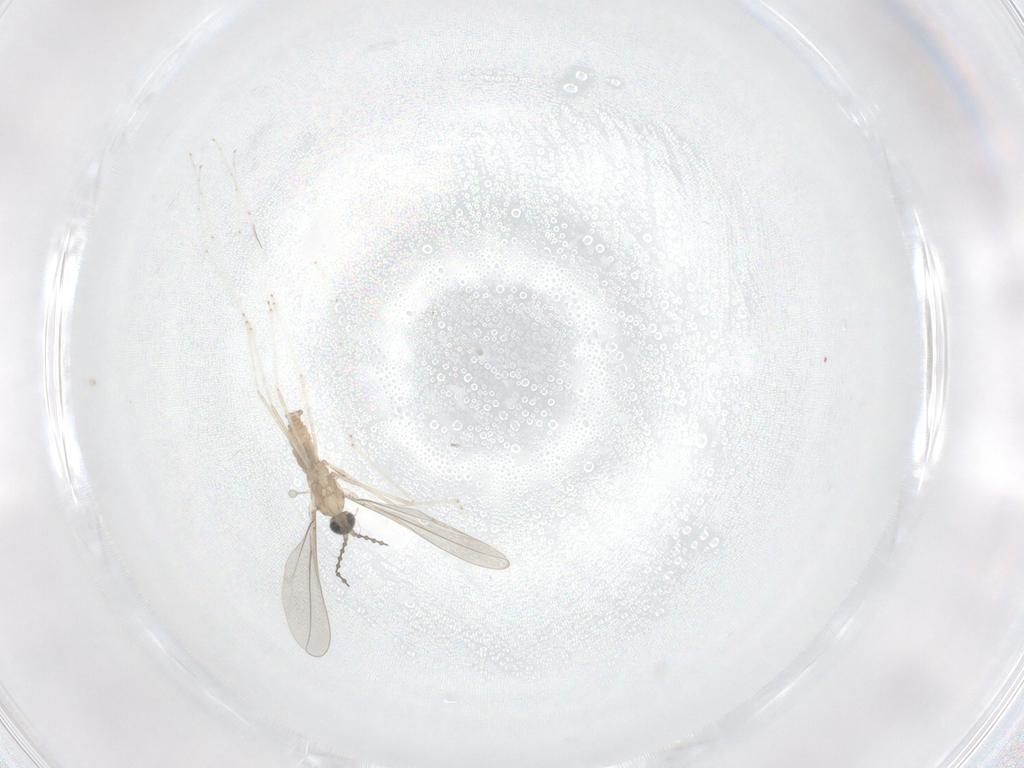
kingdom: Animalia
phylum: Arthropoda
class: Insecta
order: Diptera
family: Cecidomyiidae
